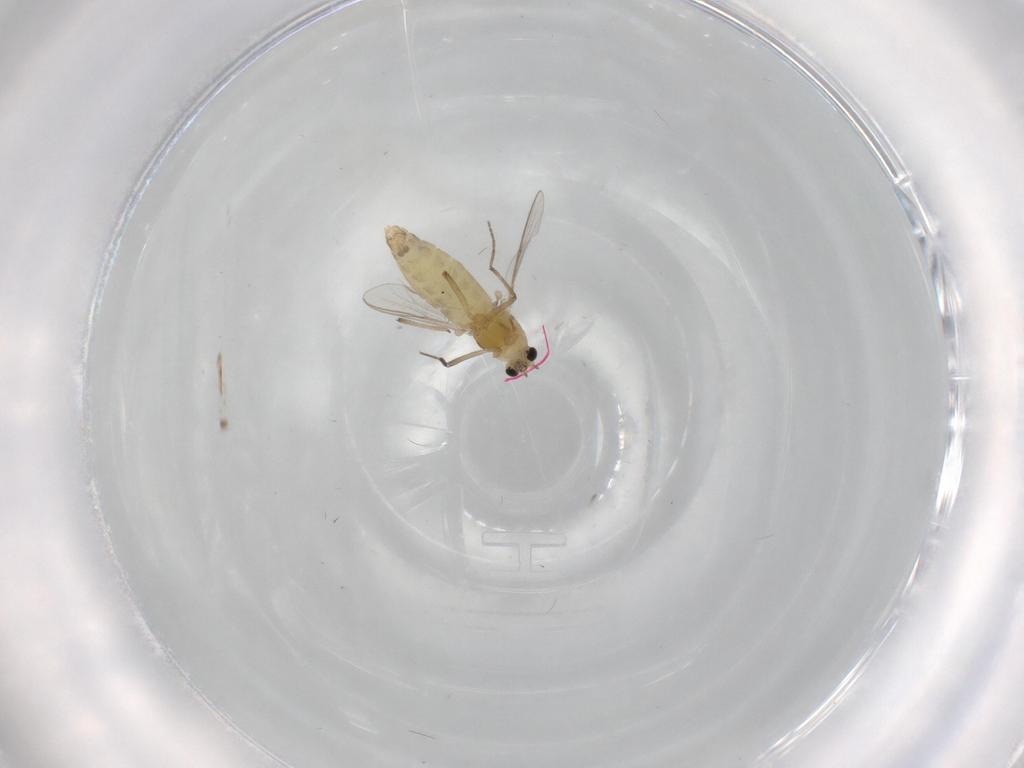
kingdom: Animalia
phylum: Arthropoda
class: Insecta
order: Diptera
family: Chironomidae
